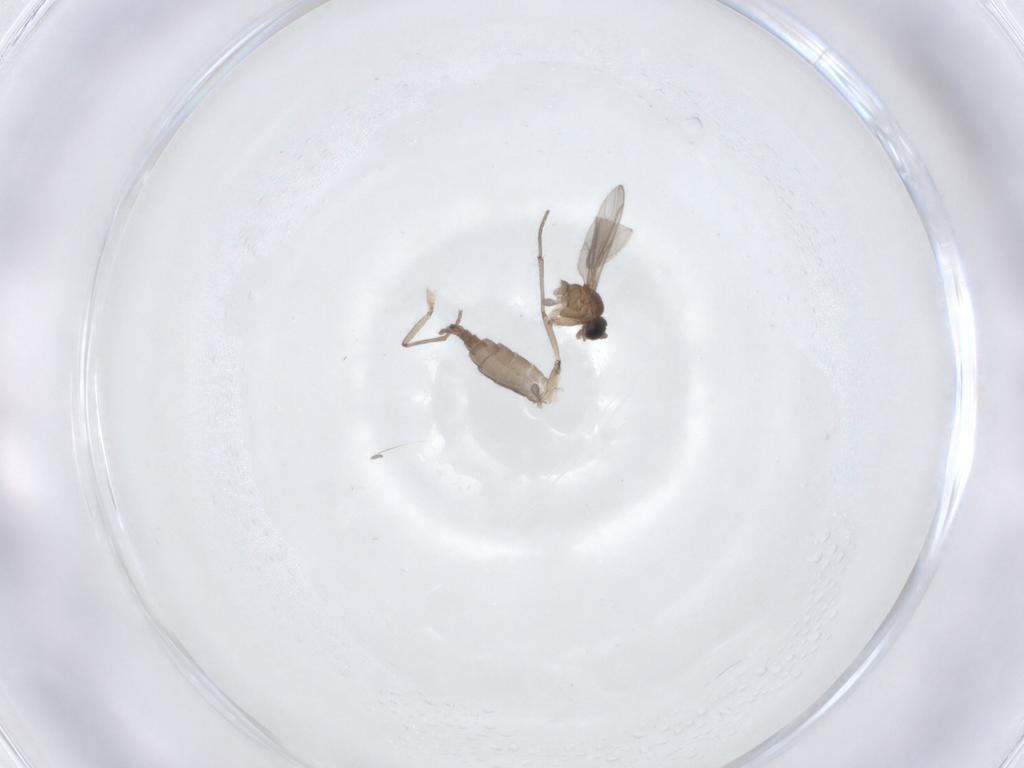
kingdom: Animalia
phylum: Arthropoda
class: Insecta
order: Diptera
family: Sciaridae
